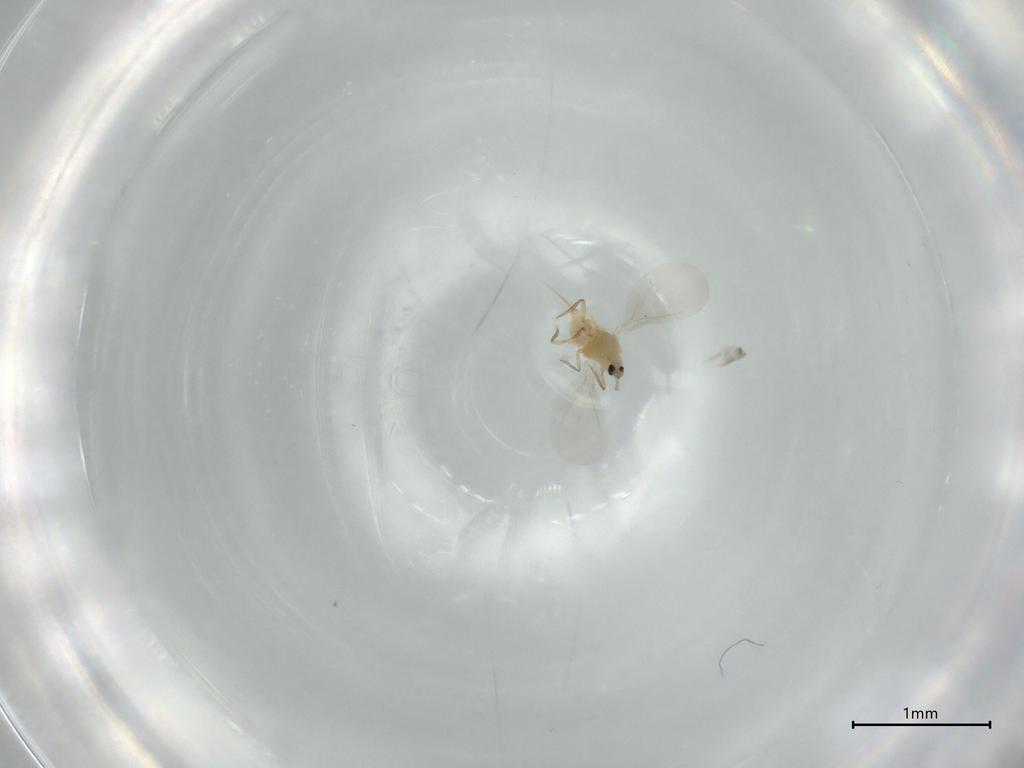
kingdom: Animalia
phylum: Arthropoda
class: Insecta
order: Hemiptera
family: Diaspididae
